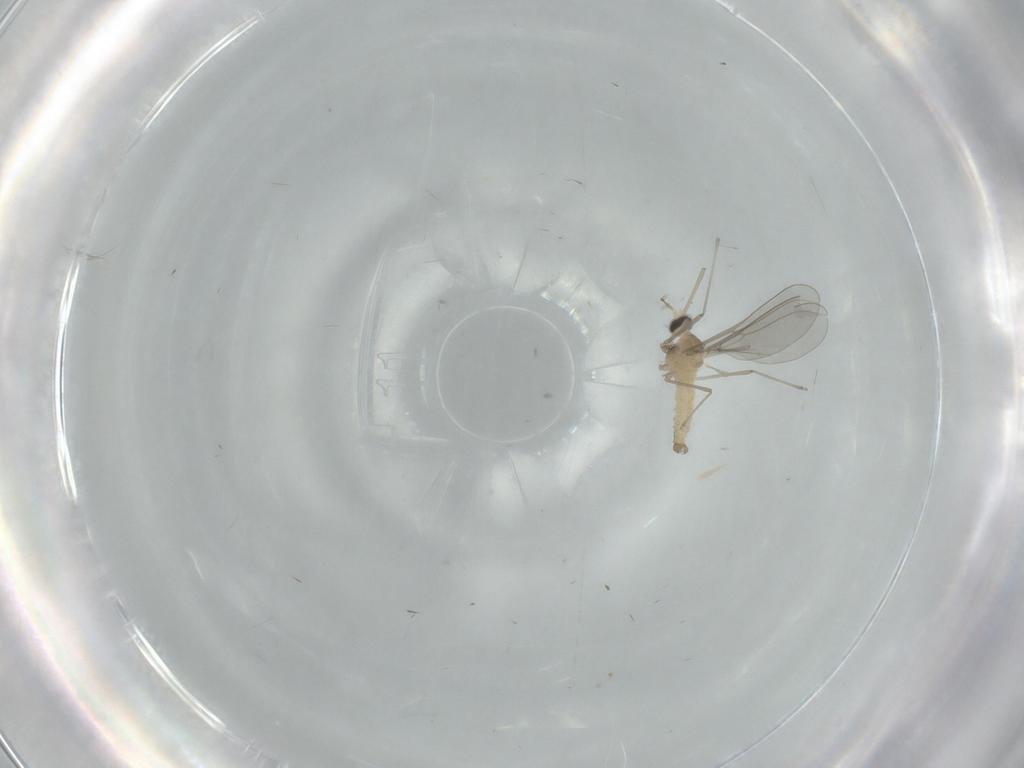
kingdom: Animalia
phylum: Arthropoda
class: Insecta
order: Diptera
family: Cecidomyiidae
